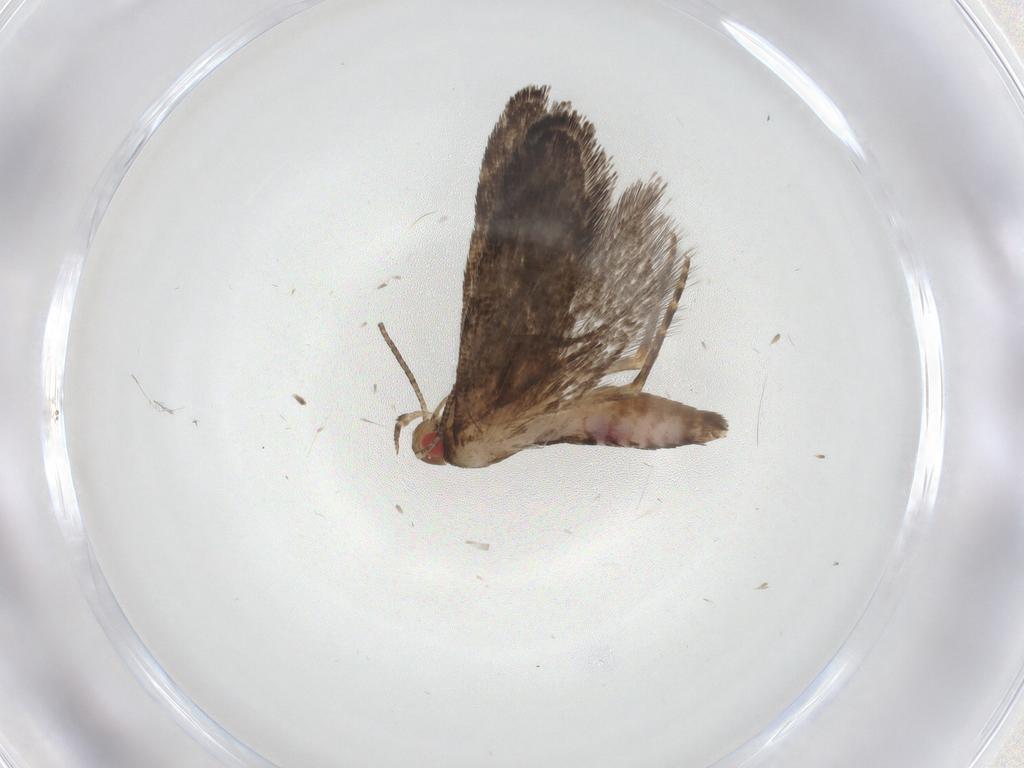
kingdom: Animalia
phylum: Arthropoda
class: Insecta
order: Lepidoptera
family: Gelechiidae
